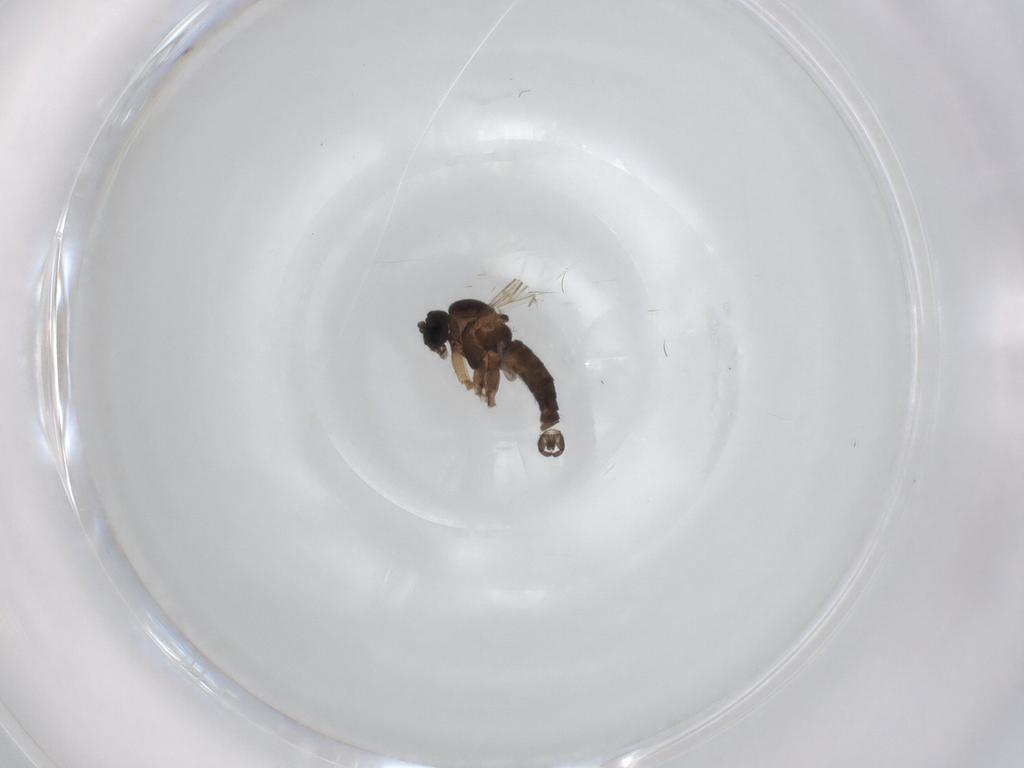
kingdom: Animalia
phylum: Arthropoda
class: Insecta
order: Diptera
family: Sciaridae
